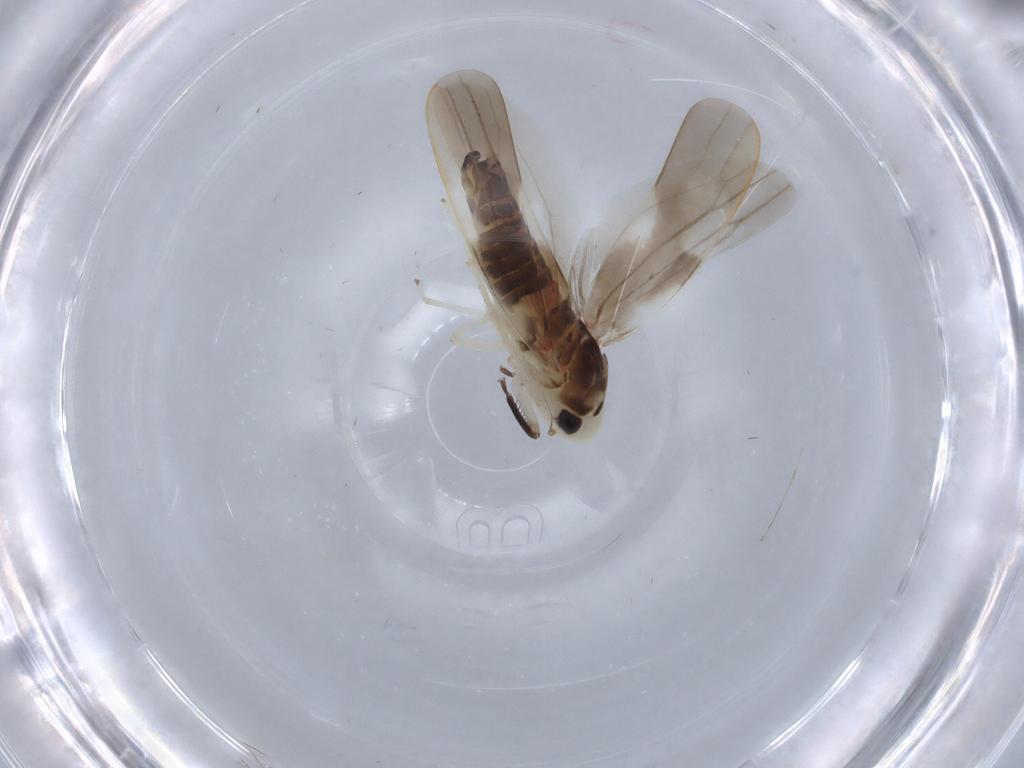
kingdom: Animalia
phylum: Arthropoda
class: Insecta
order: Hemiptera
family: Cicadellidae
